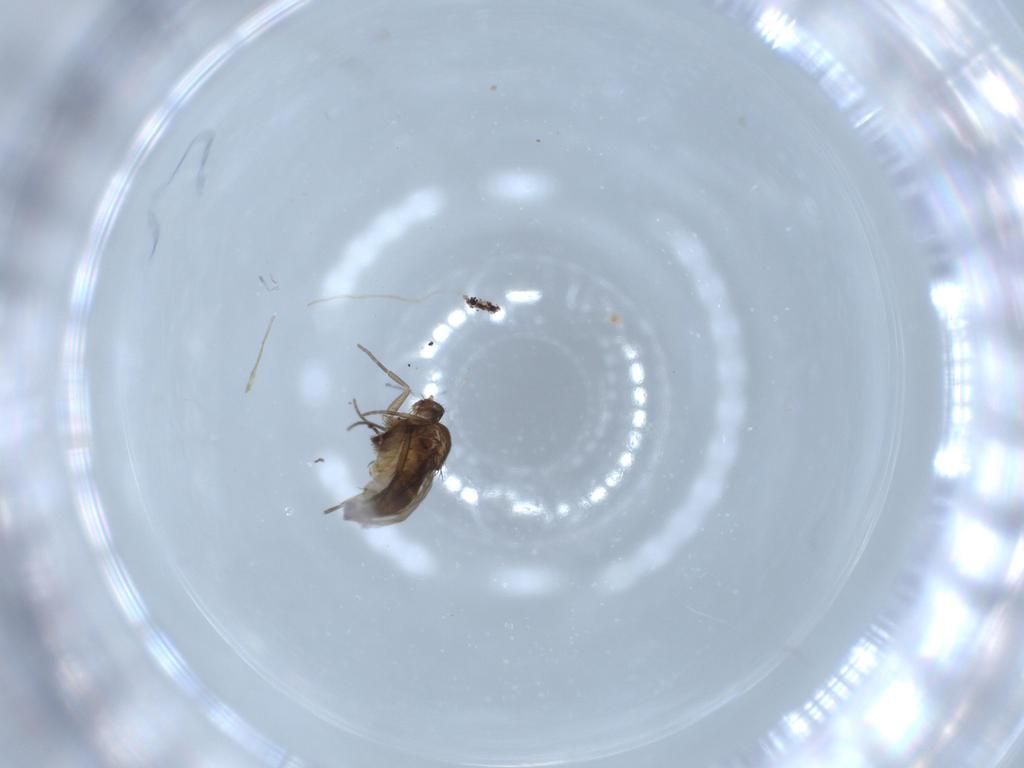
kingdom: Animalia
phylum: Arthropoda
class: Insecta
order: Diptera
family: Phoridae
